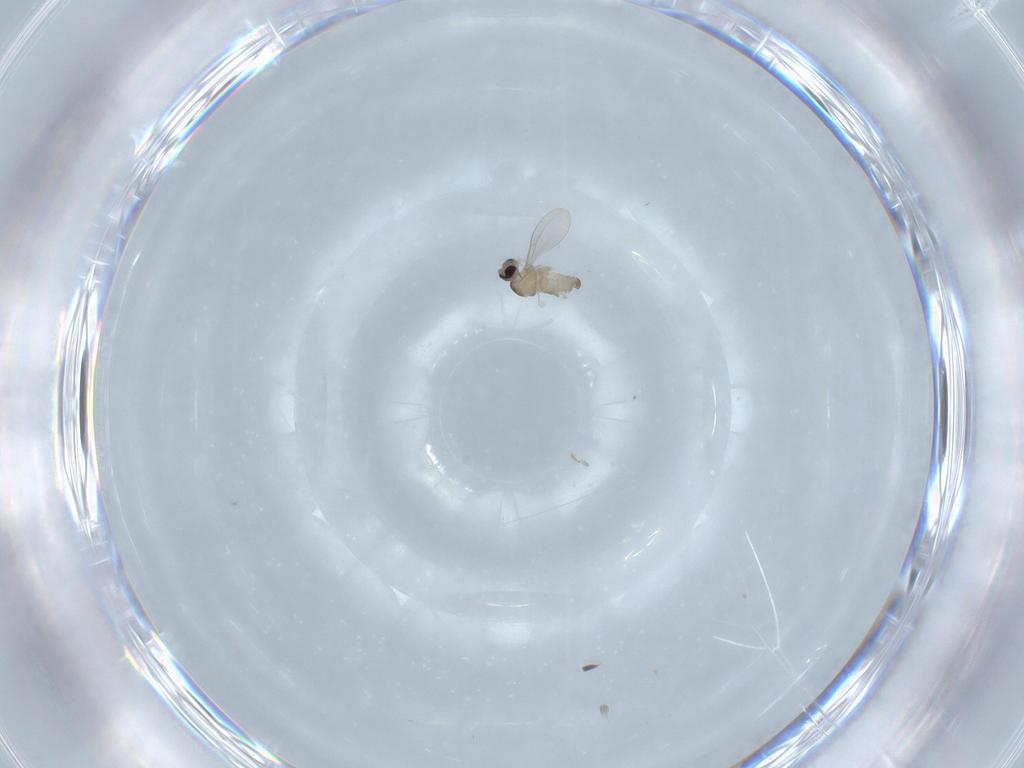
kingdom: Animalia
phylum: Arthropoda
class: Insecta
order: Diptera
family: Cecidomyiidae
